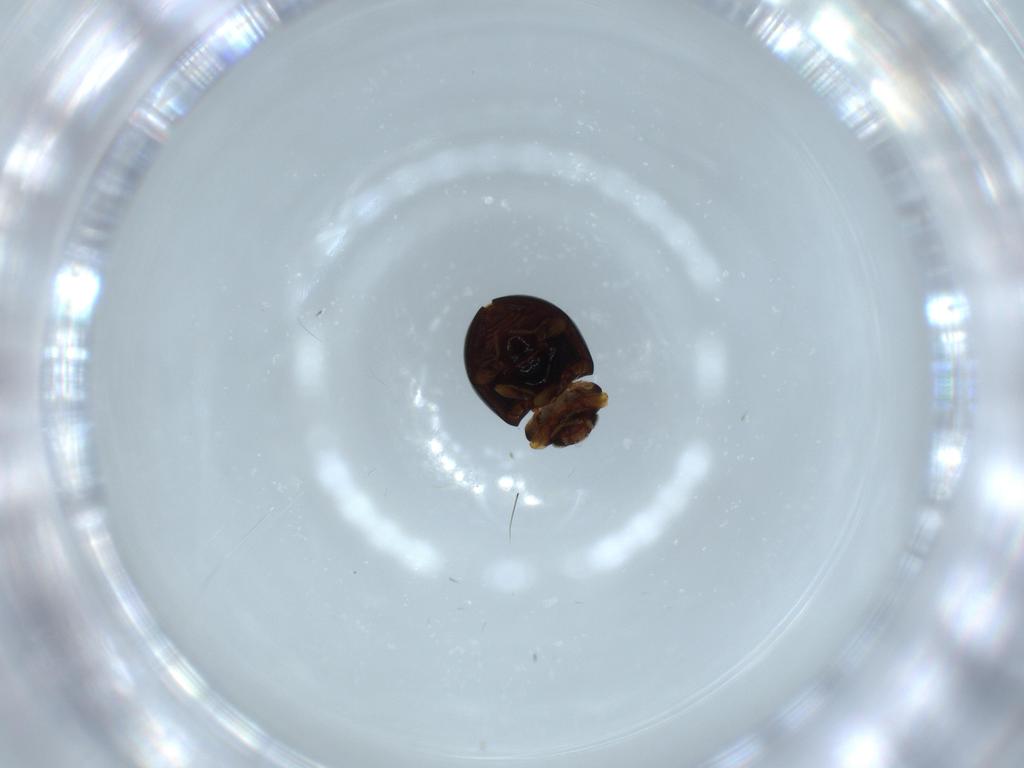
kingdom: Animalia
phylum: Arthropoda
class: Insecta
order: Coleoptera
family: Coccinellidae
